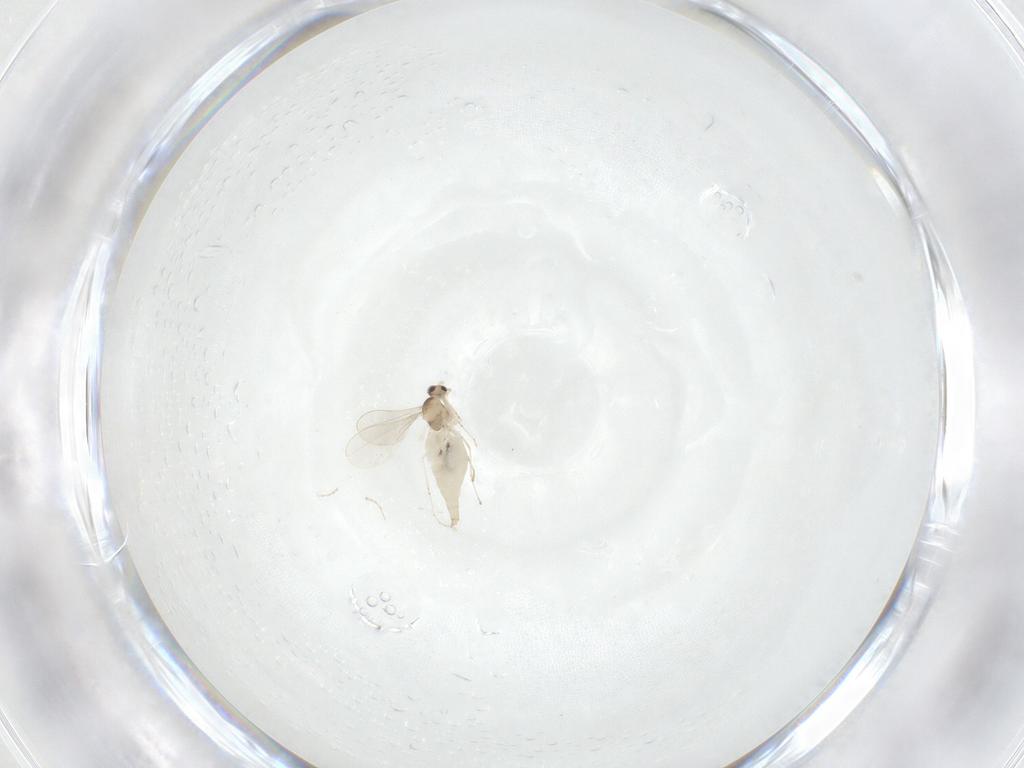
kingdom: Animalia
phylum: Arthropoda
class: Insecta
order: Diptera
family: Cecidomyiidae
